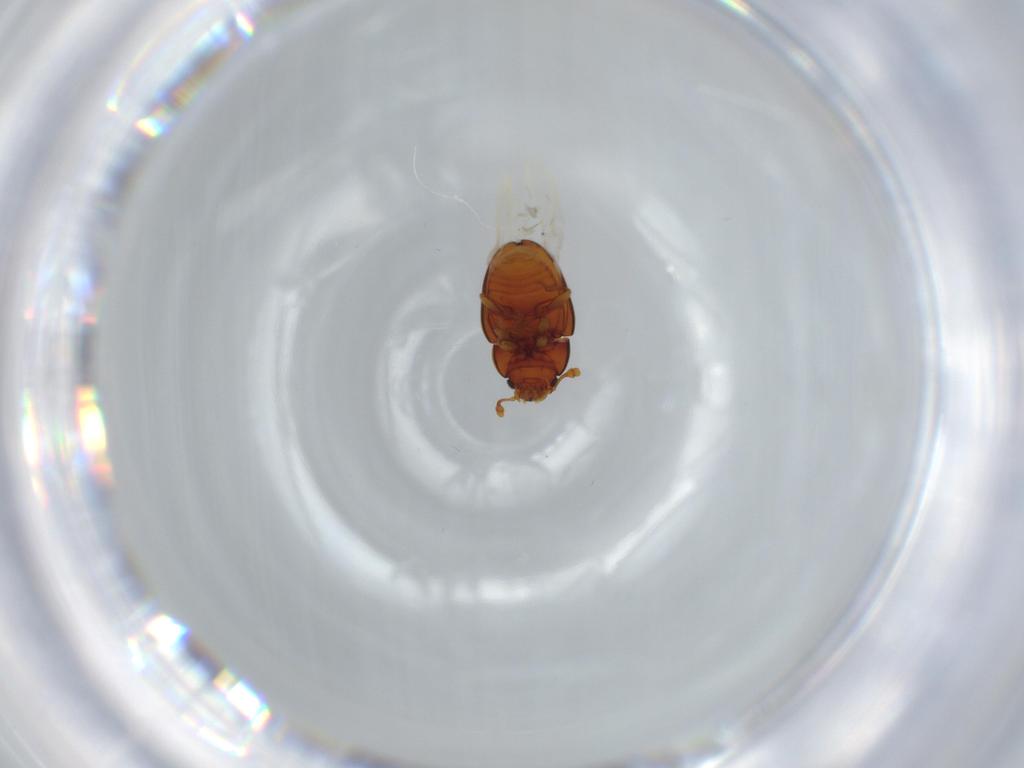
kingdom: Animalia
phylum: Arthropoda
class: Insecta
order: Coleoptera
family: Eupsilobiidae
